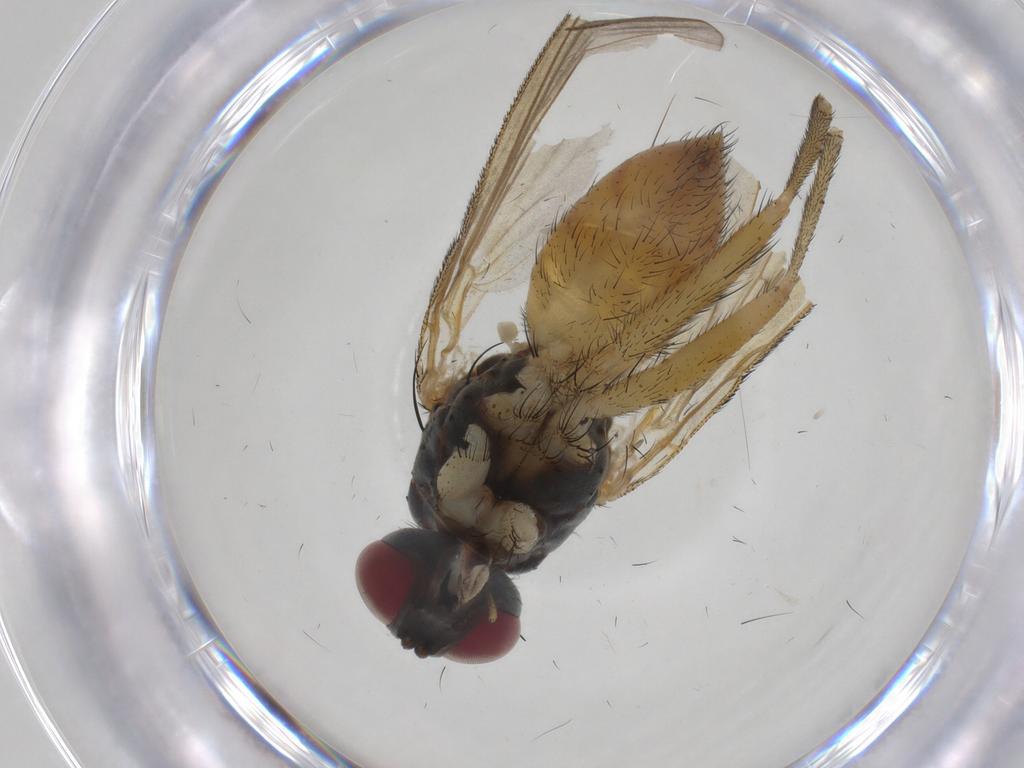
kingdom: Animalia
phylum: Arthropoda
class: Insecta
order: Diptera
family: Muscidae
